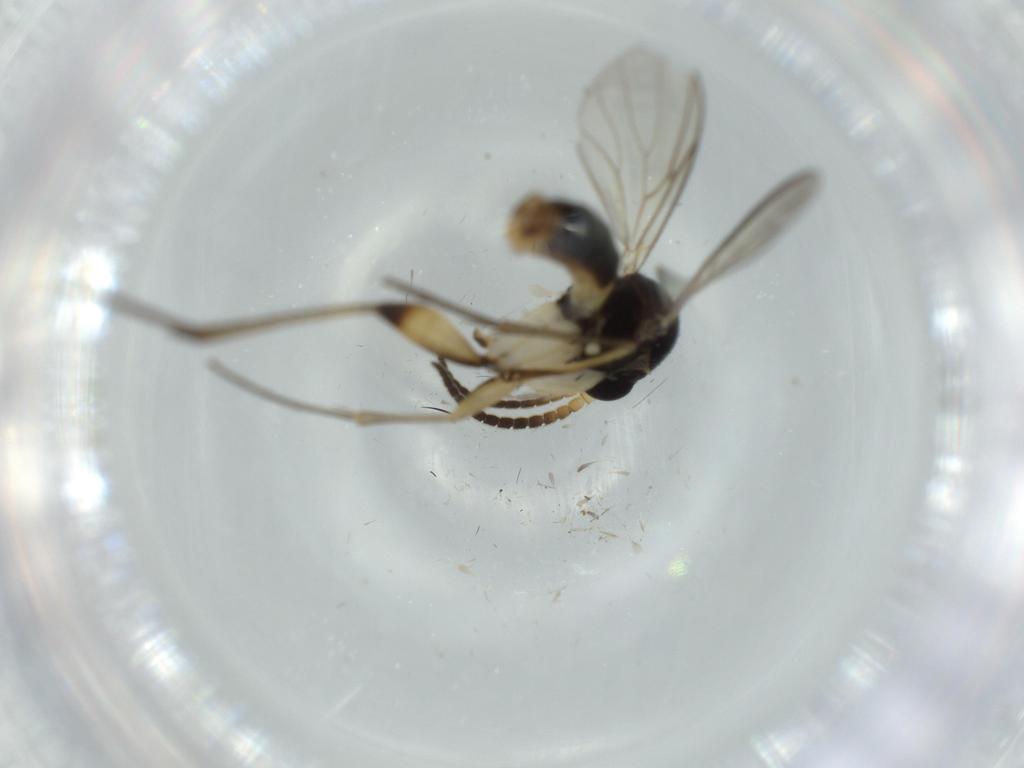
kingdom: Animalia
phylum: Arthropoda
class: Insecta
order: Diptera
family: Sphaeroceridae
